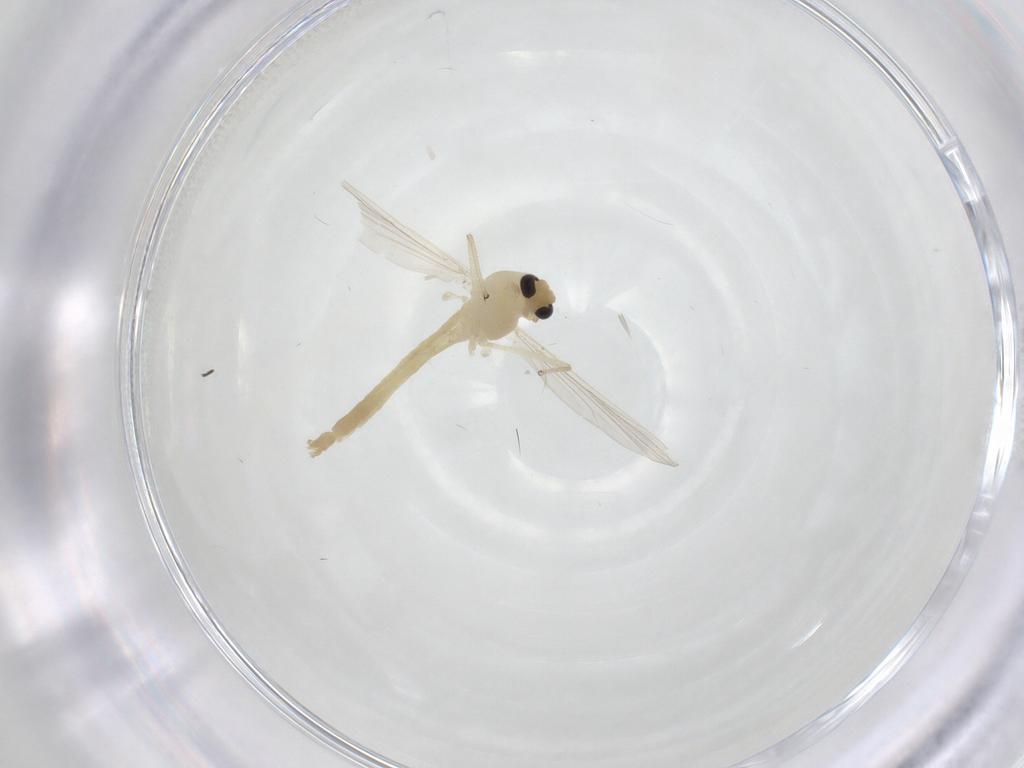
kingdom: Animalia
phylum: Arthropoda
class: Insecta
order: Diptera
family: Chironomidae
